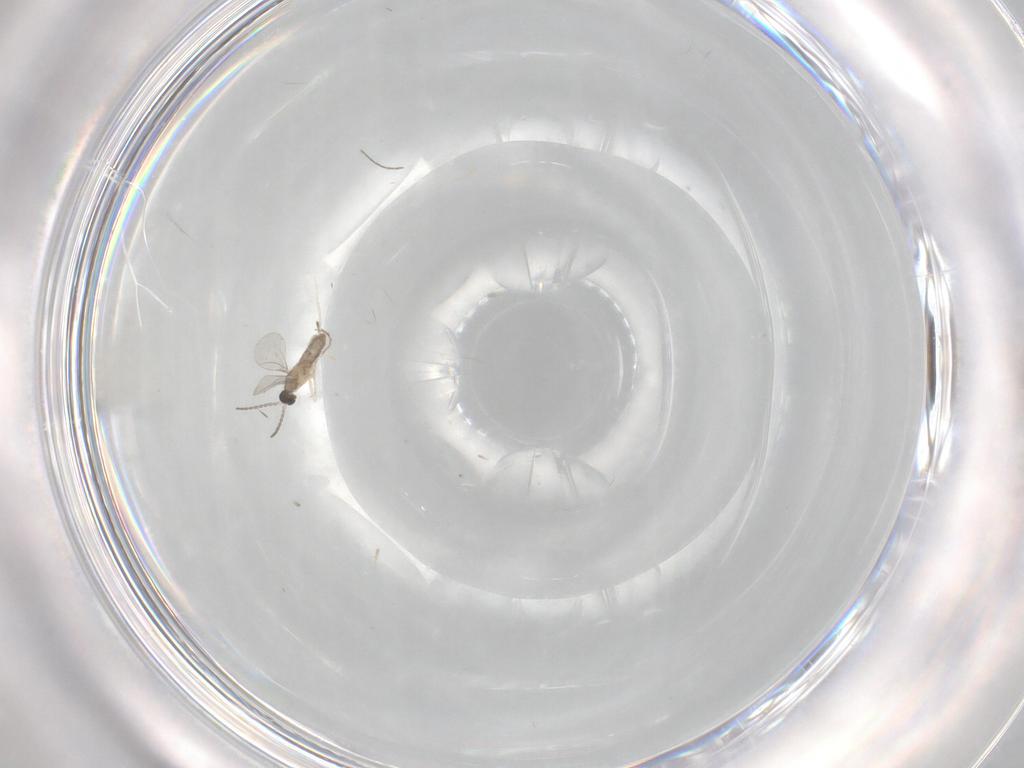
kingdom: Animalia
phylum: Arthropoda
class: Insecta
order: Diptera
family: Cecidomyiidae
